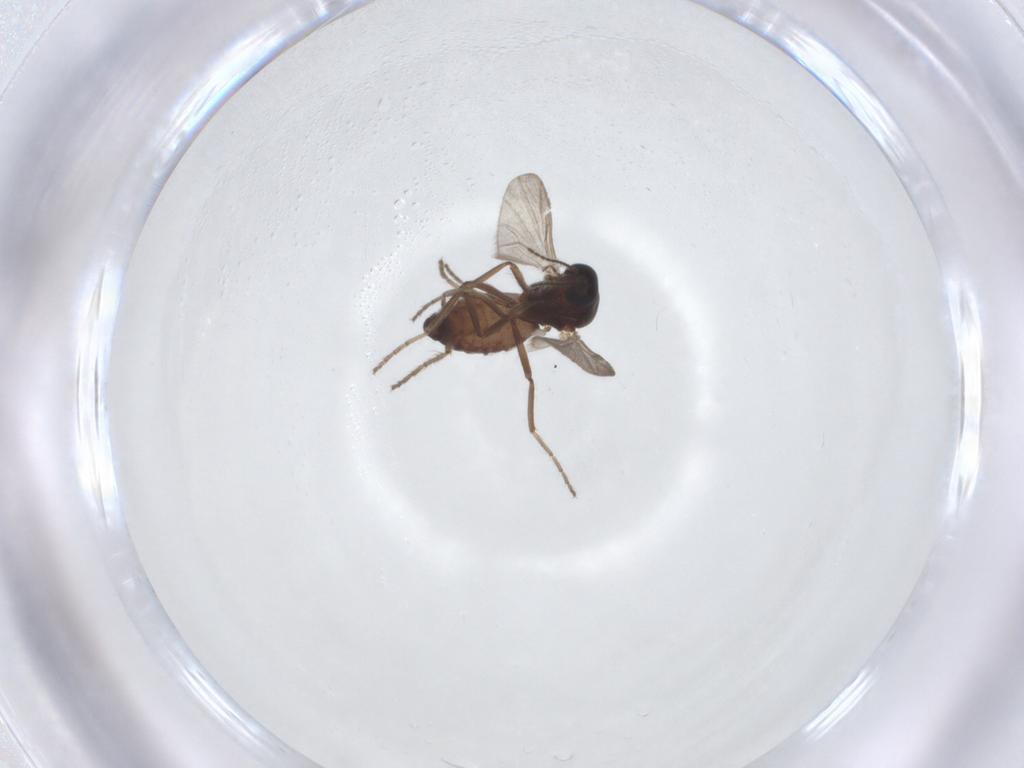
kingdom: Animalia
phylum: Arthropoda
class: Insecta
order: Diptera
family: Ceratopogonidae
